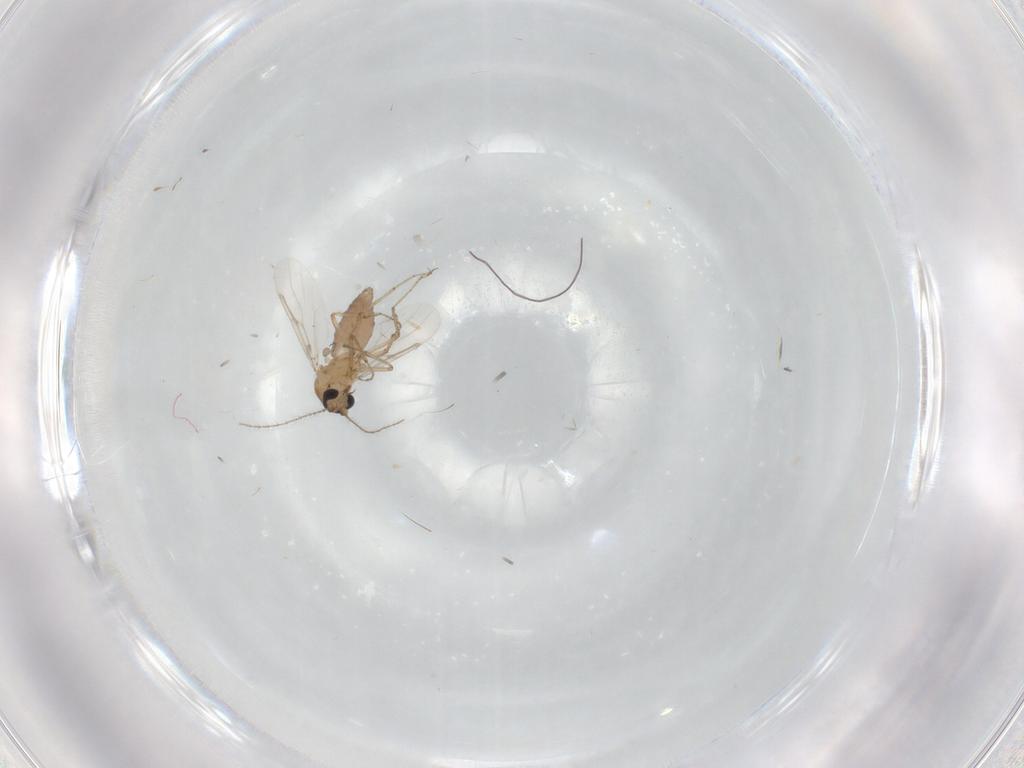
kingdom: Animalia
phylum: Arthropoda
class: Insecta
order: Diptera
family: Ceratopogonidae
